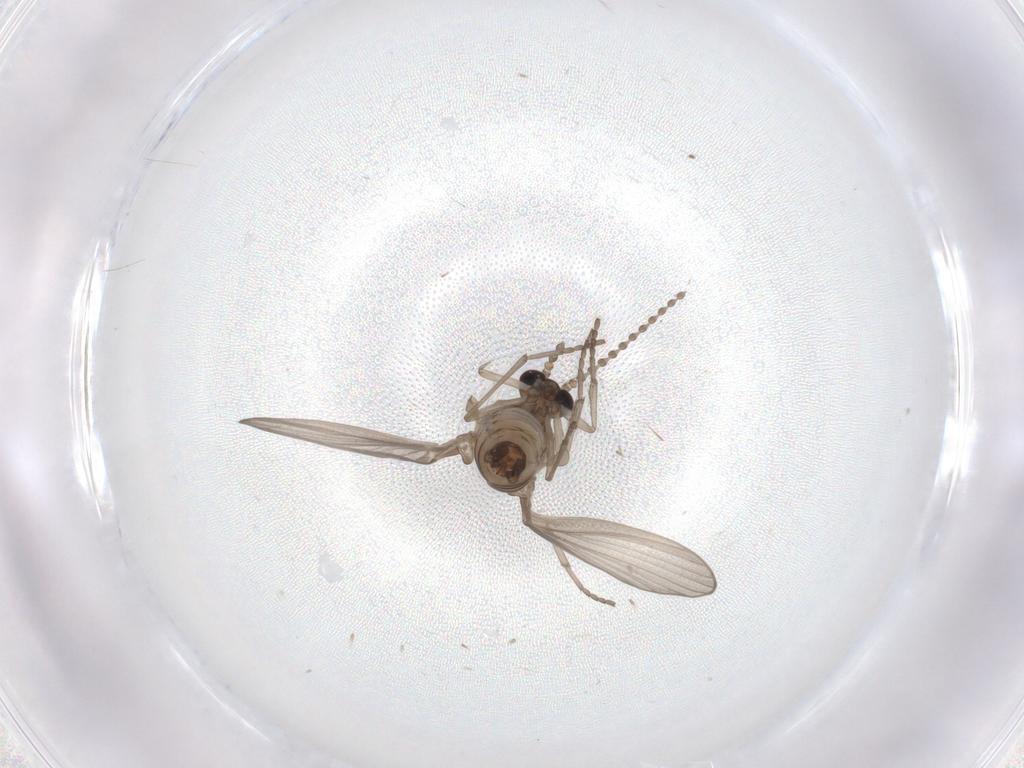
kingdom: Animalia
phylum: Arthropoda
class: Insecta
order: Diptera
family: Psychodidae
